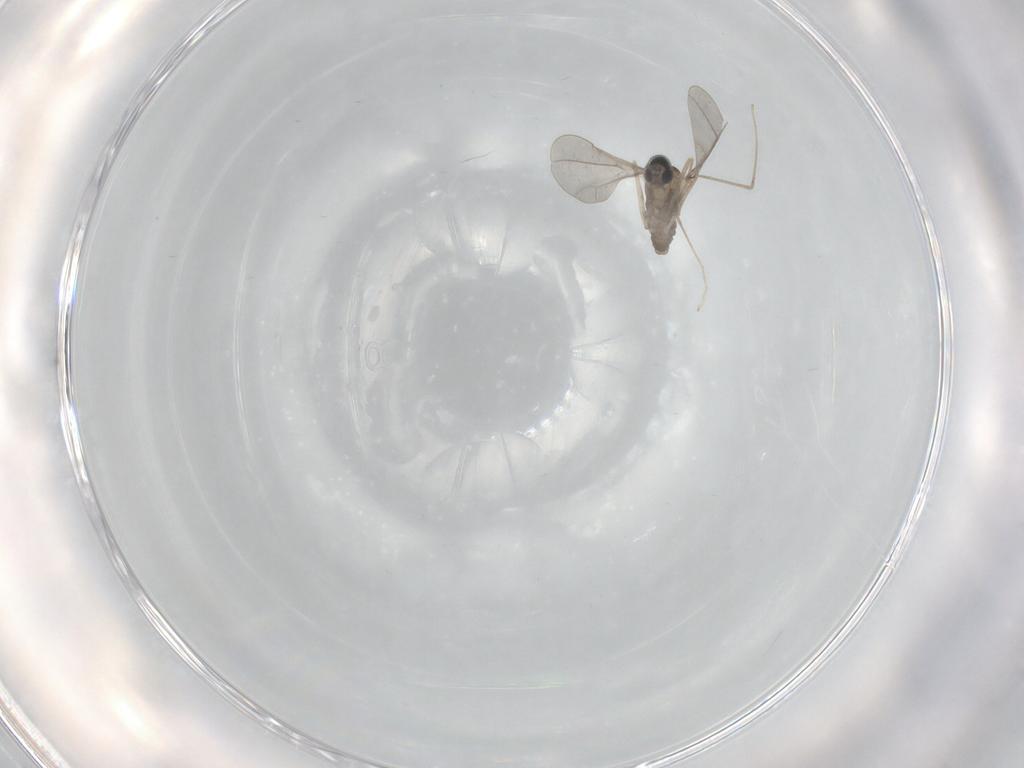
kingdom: Animalia
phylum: Arthropoda
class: Insecta
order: Diptera
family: Cecidomyiidae
